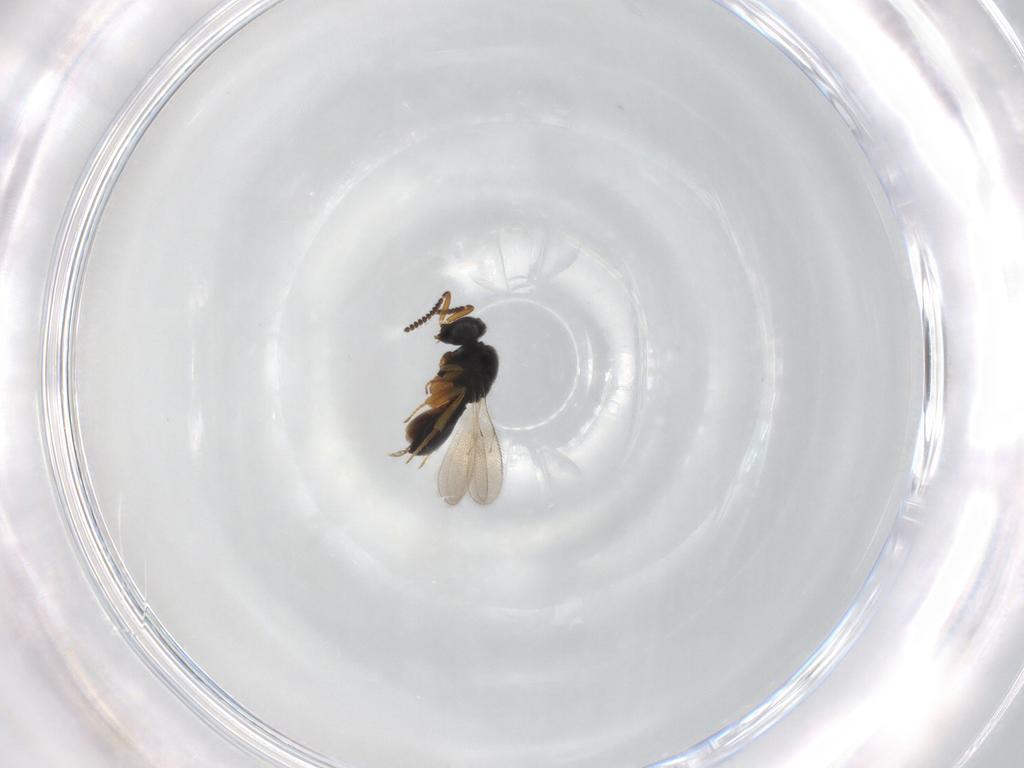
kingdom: Animalia
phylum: Arthropoda
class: Insecta
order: Hymenoptera
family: Scelionidae
